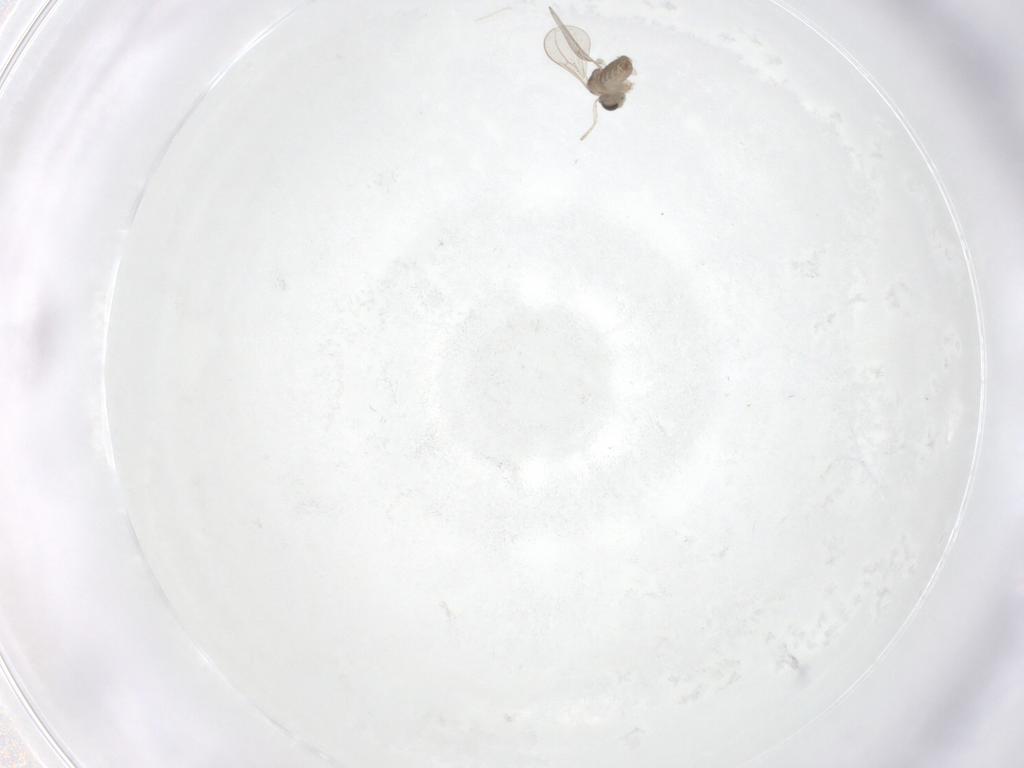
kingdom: Animalia
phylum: Arthropoda
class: Insecta
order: Diptera
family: Cecidomyiidae
